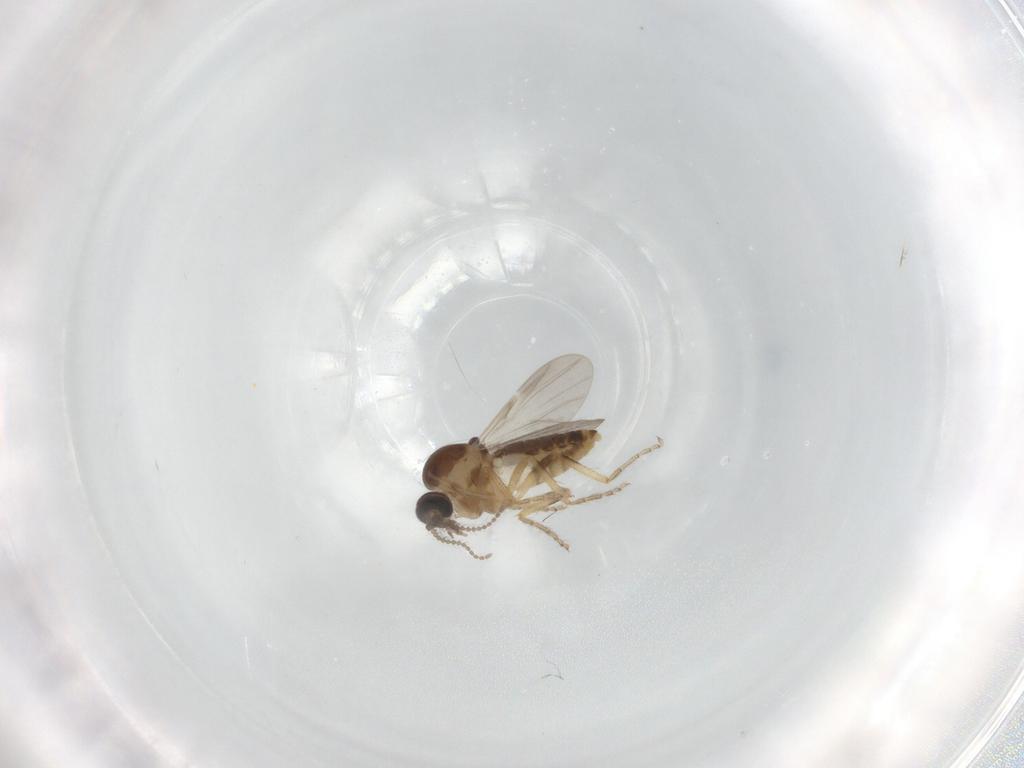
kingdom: Animalia
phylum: Arthropoda
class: Insecta
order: Diptera
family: Ceratopogonidae
